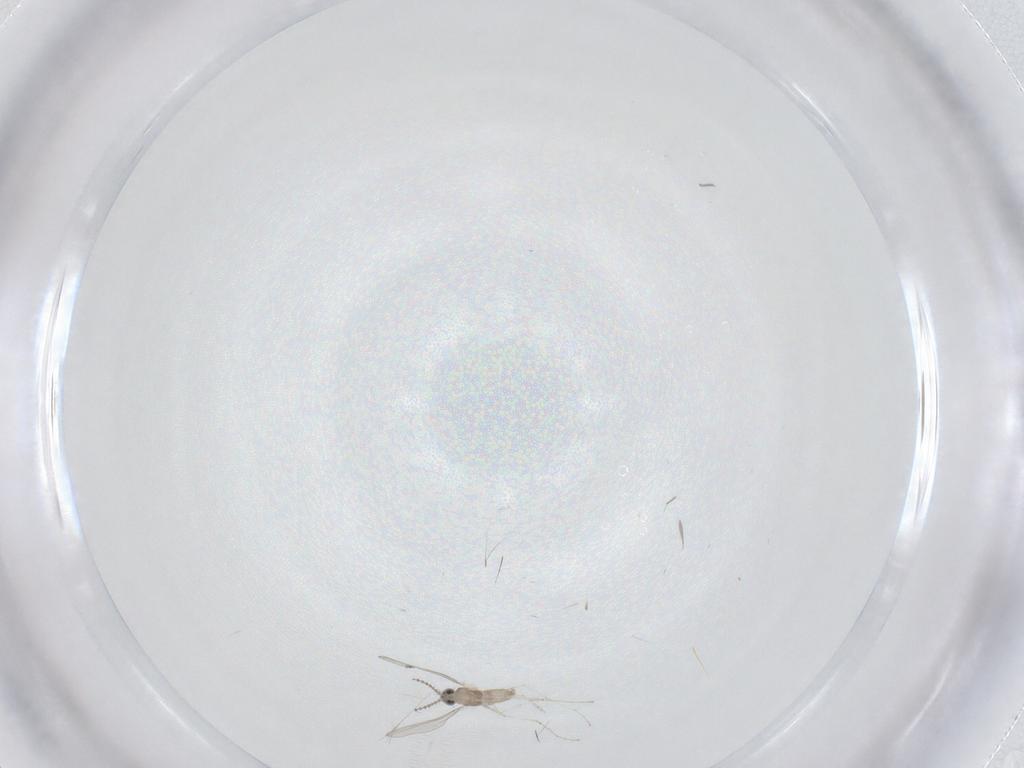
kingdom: Animalia
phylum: Arthropoda
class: Insecta
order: Diptera
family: Cecidomyiidae
